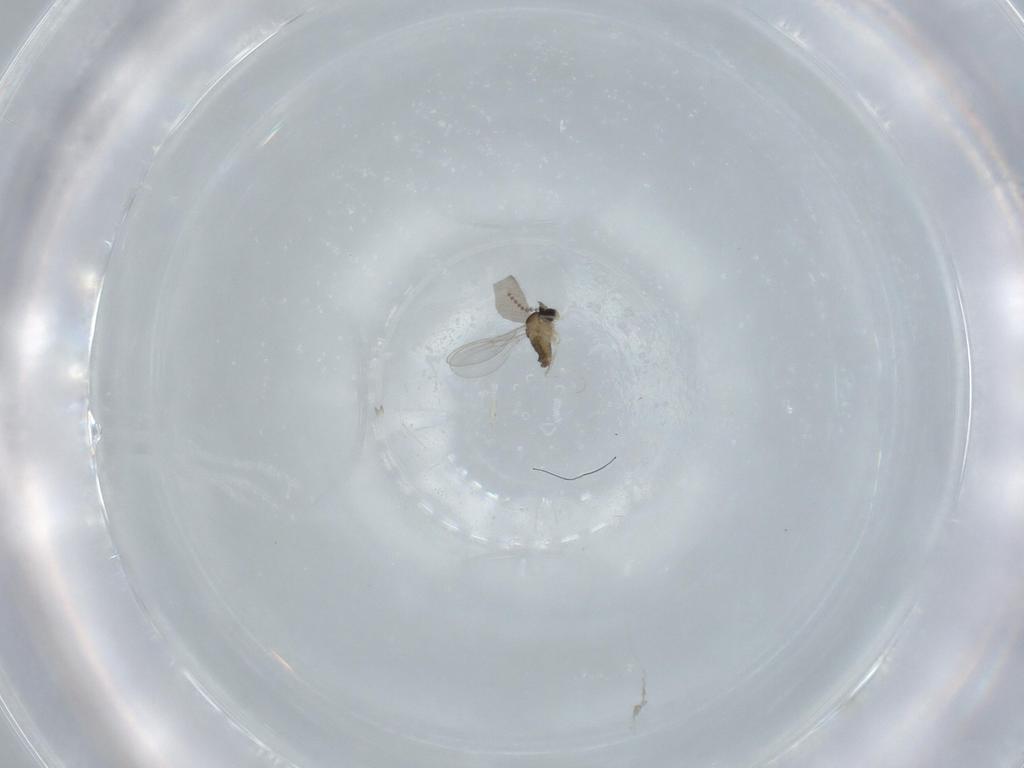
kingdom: Animalia
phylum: Arthropoda
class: Insecta
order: Diptera
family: Cecidomyiidae
